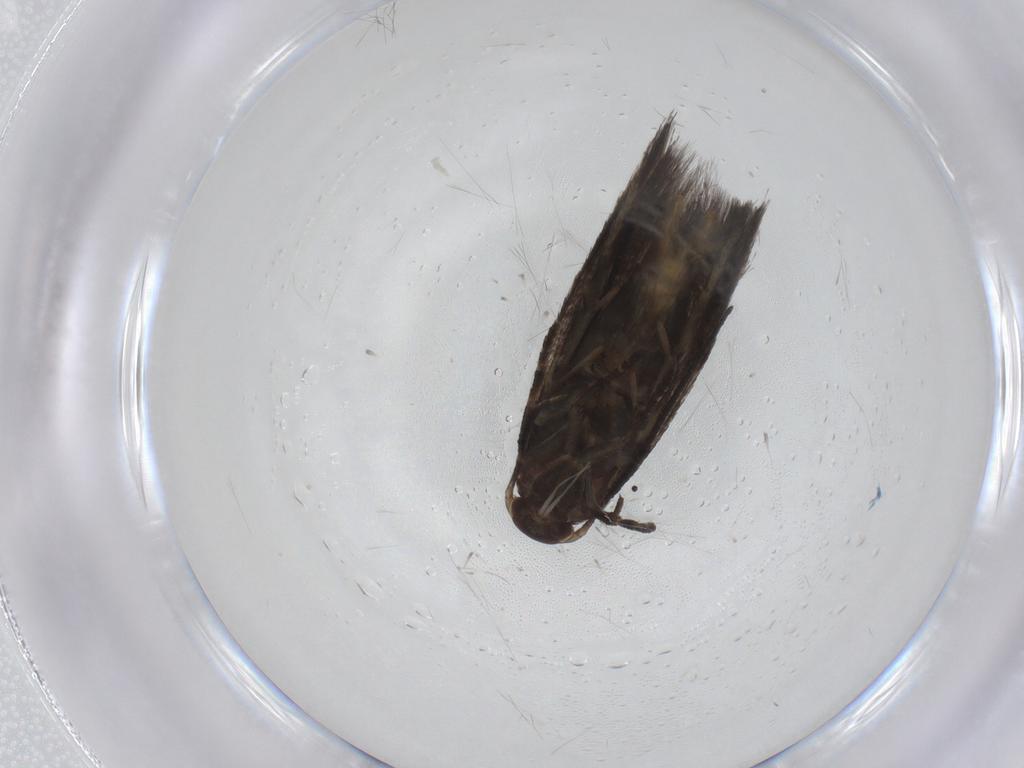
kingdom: Animalia
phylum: Arthropoda
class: Insecta
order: Lepidoptera
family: Elachistidae
